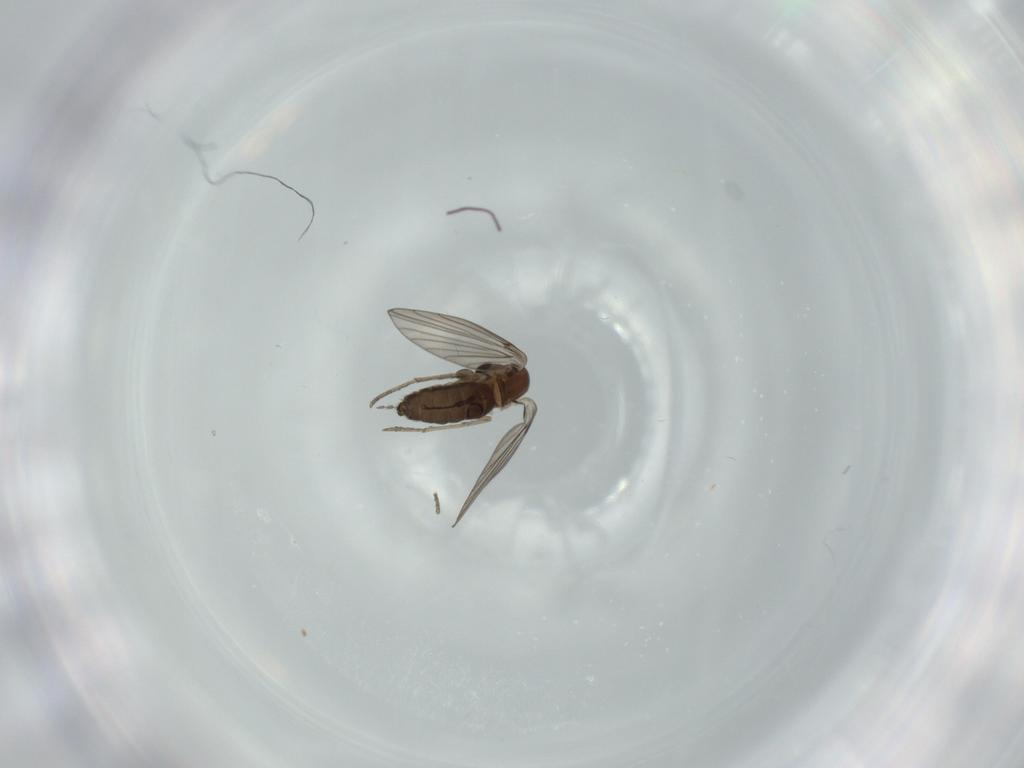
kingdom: Animalia
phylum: Arthropoda
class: Insecta
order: Diptera
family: Psychodidae
